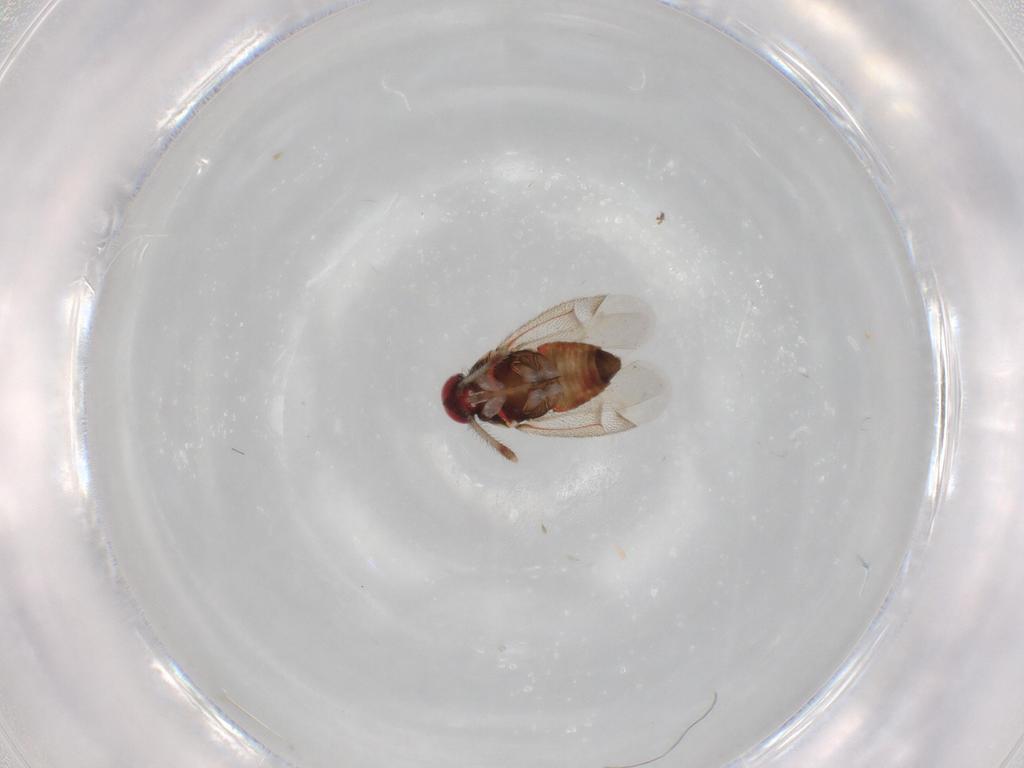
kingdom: Animalia
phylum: Arthropoda
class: Insecta
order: Hemiptera
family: Miridae
